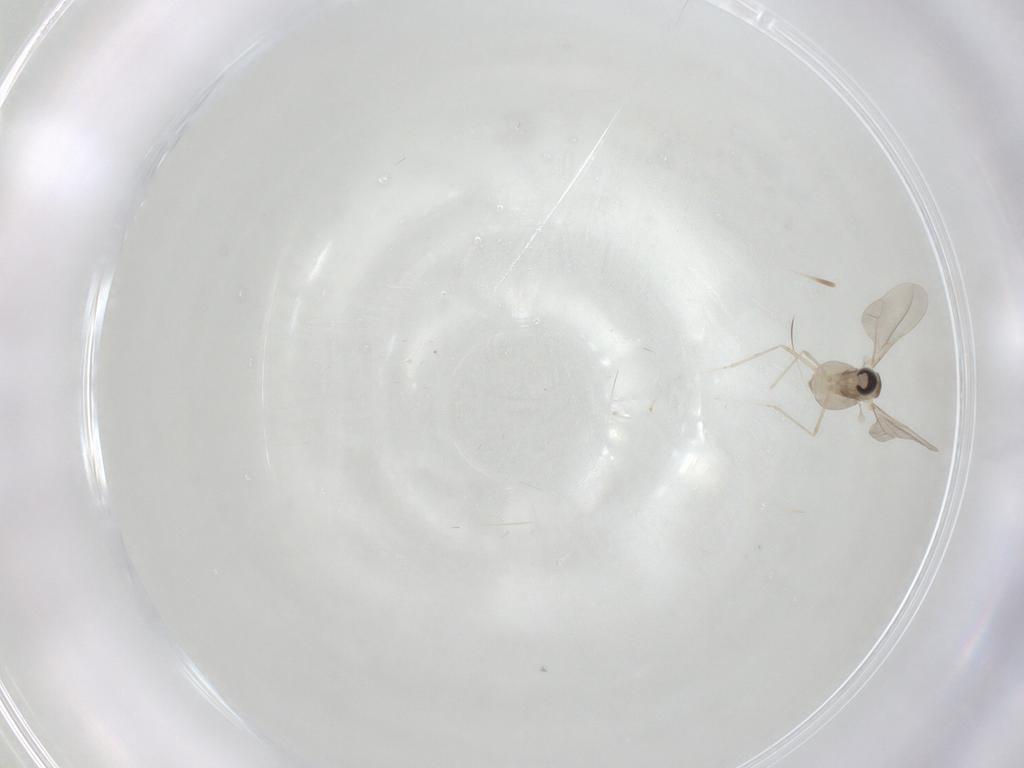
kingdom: Animalia
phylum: Arthropoda
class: Insecta
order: Diptera
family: Cecidomyiidae
